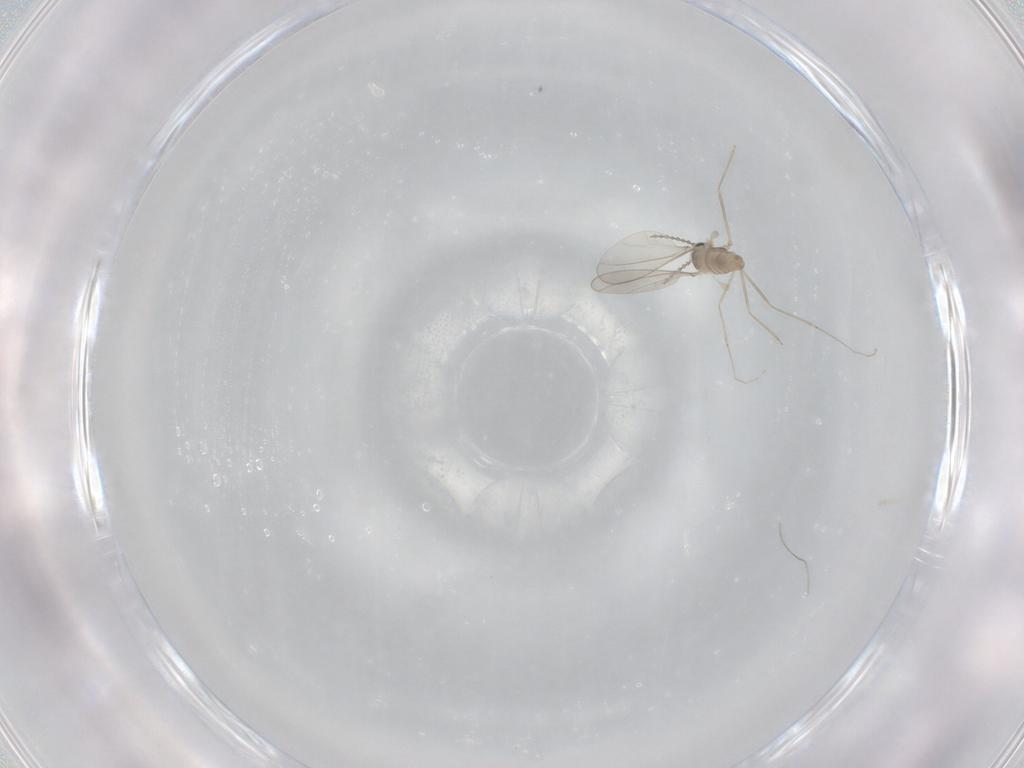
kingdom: Animalia
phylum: Arthropoda
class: Insecta
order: Diptera
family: Cecidomyiidae
